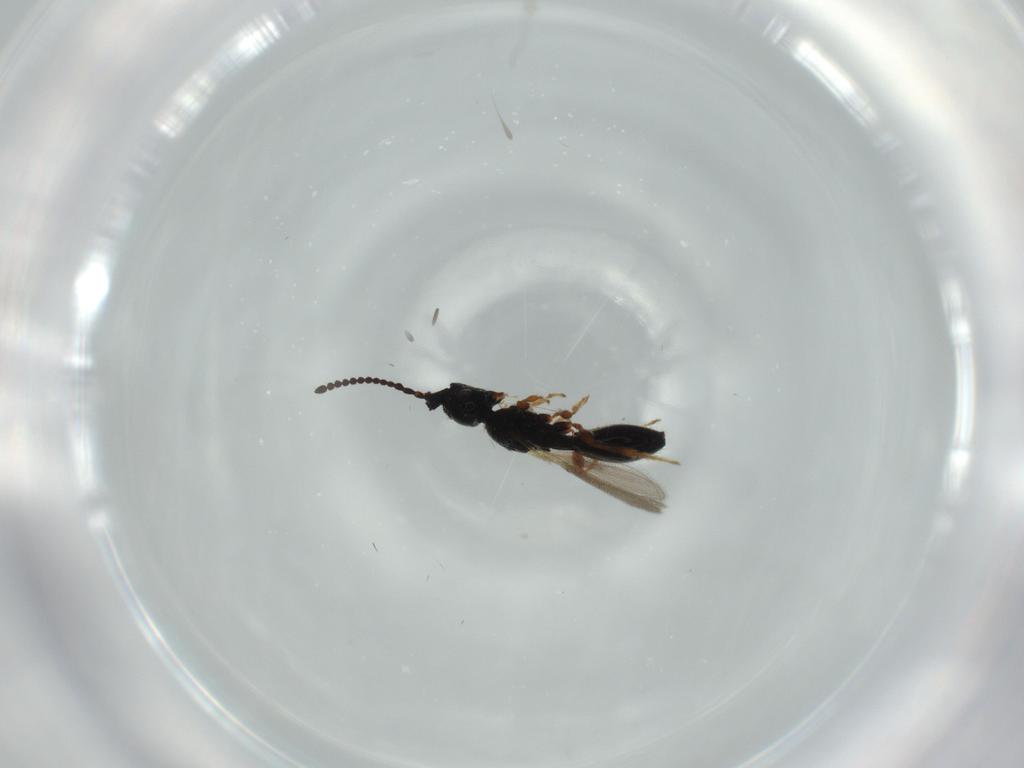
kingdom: Animalia
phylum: Arthropoda
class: Insecta
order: Hymenoptera
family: Diapriidae
